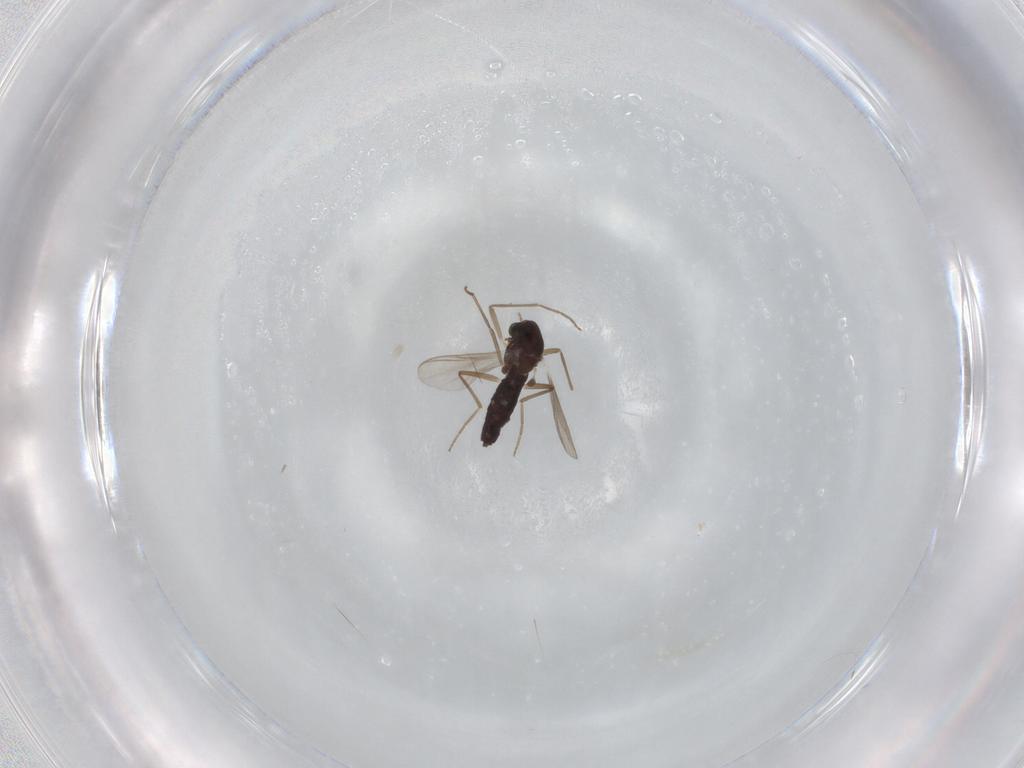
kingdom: Animalia
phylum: Arthropoda
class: Insecta
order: Diptera
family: Chironomidae
